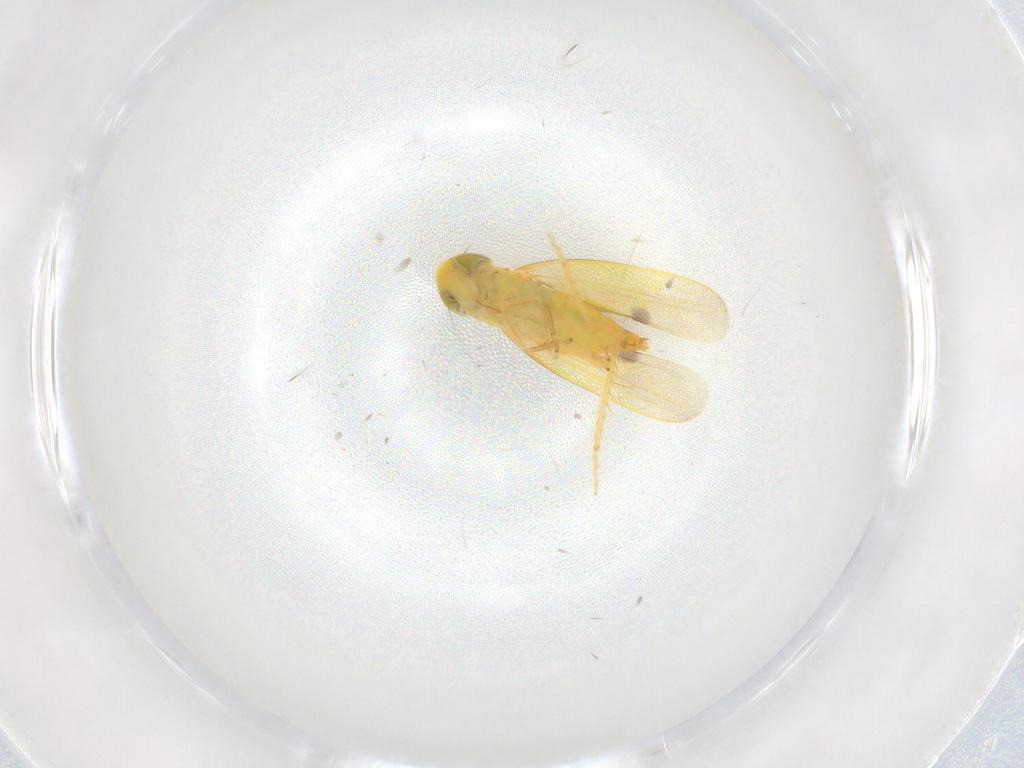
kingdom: Animalia
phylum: Arthropoda
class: Insecta
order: Hemiptera
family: Cicadellidae
